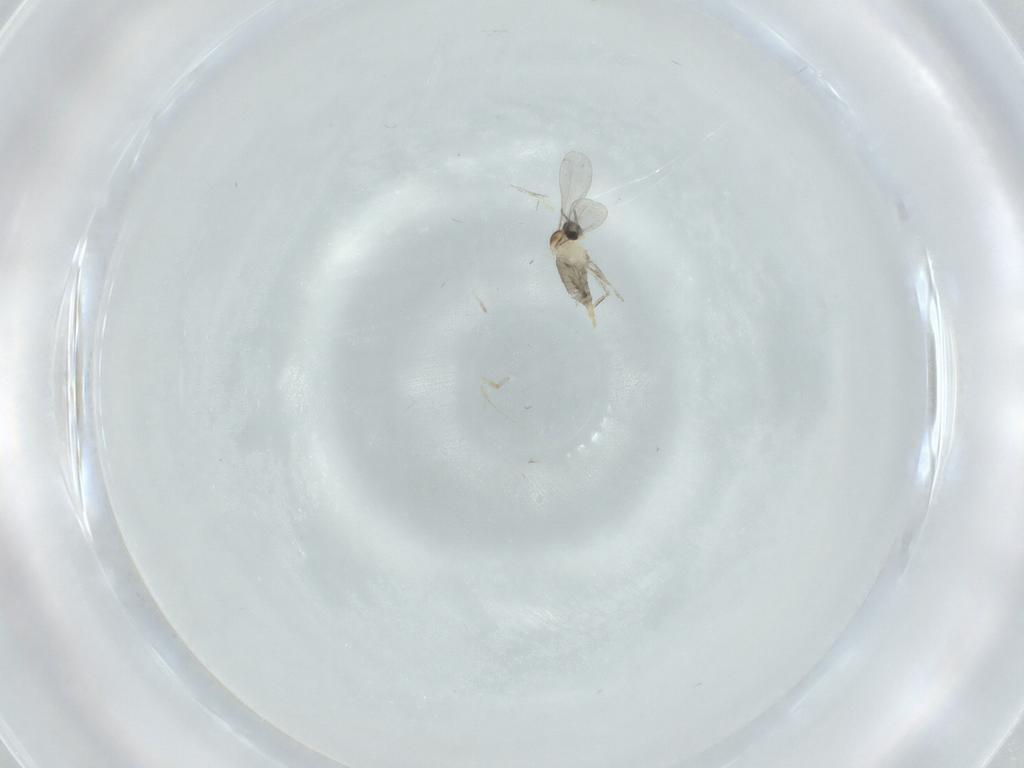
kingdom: Animalia
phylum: Arthropoda
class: Insecta
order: Diptera
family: Cecidomyiidae
